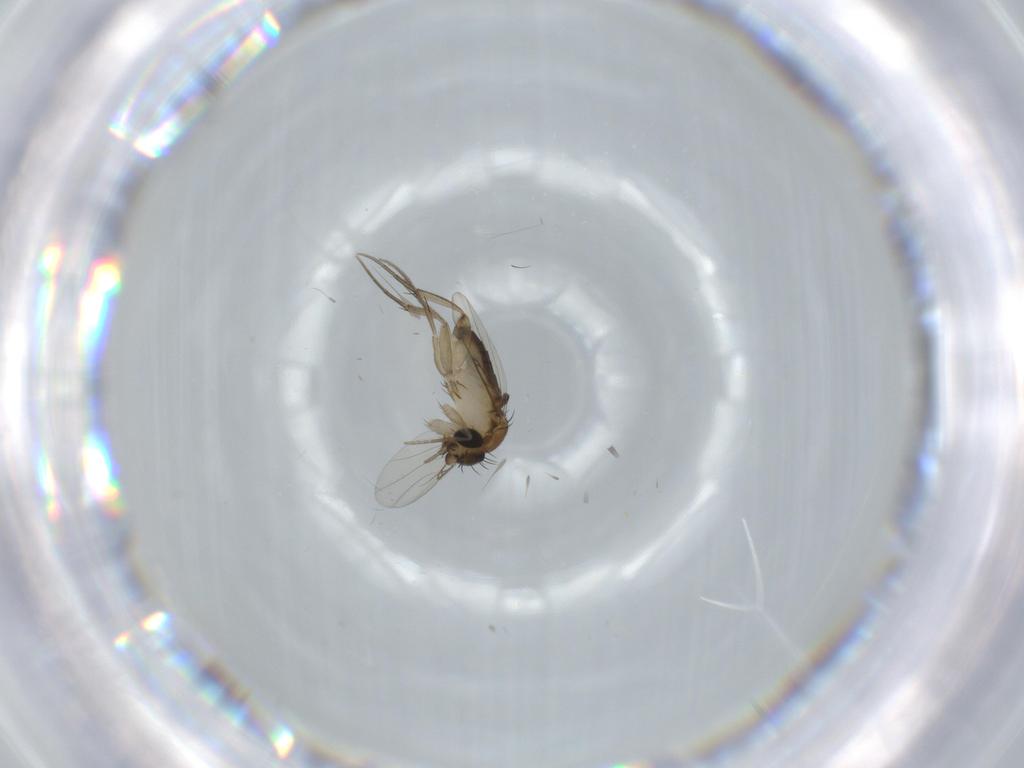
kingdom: Animalia
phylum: Arthropoda
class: Insecta
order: Diptera
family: Phoridae
